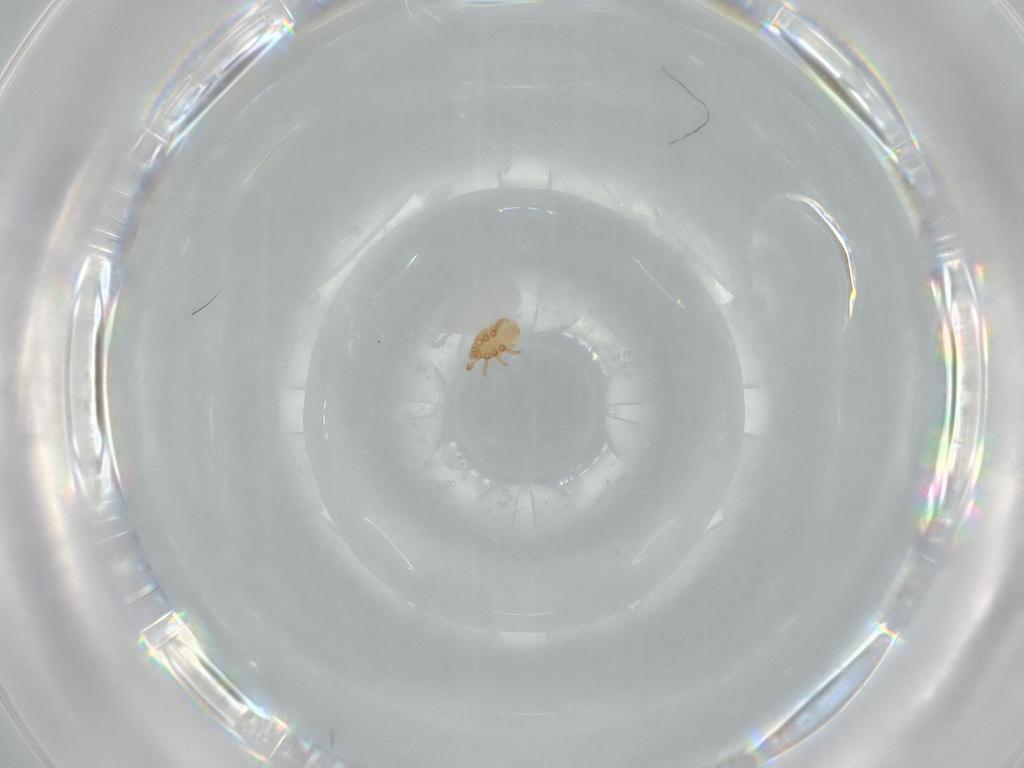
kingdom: Animalia
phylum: Arthropoda
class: Arachnida
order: Mesostigmata
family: Dinychidae
